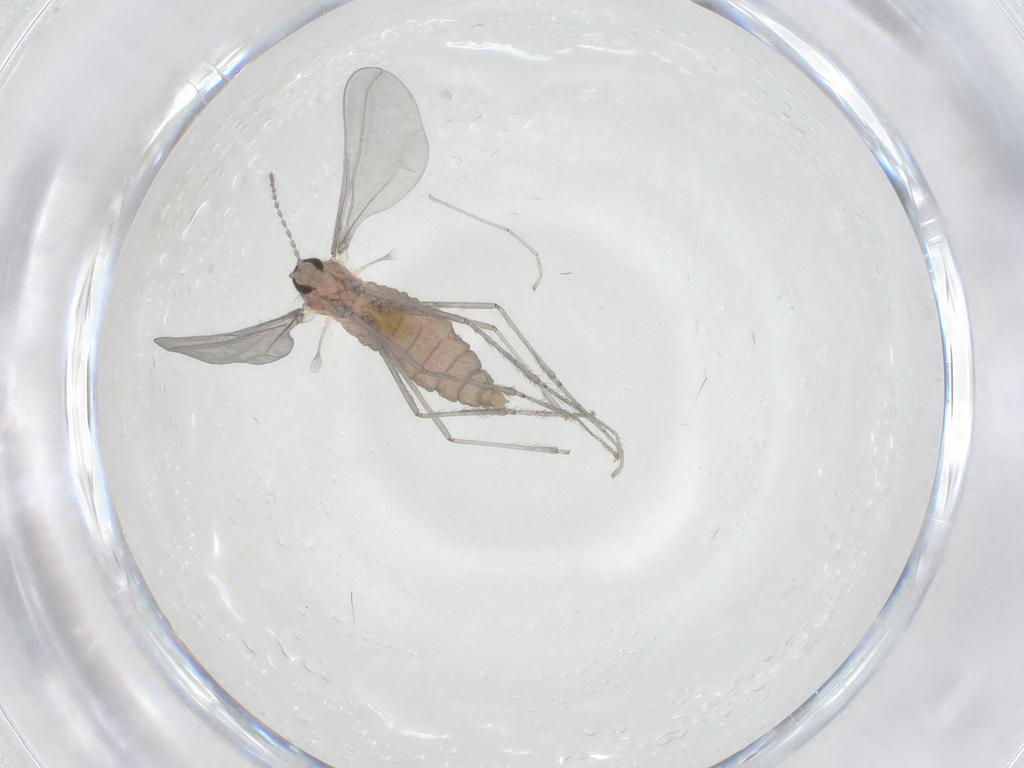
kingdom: Animalia
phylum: Arthropoda
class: Insecta
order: Diptera
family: Cecidomyiidae
